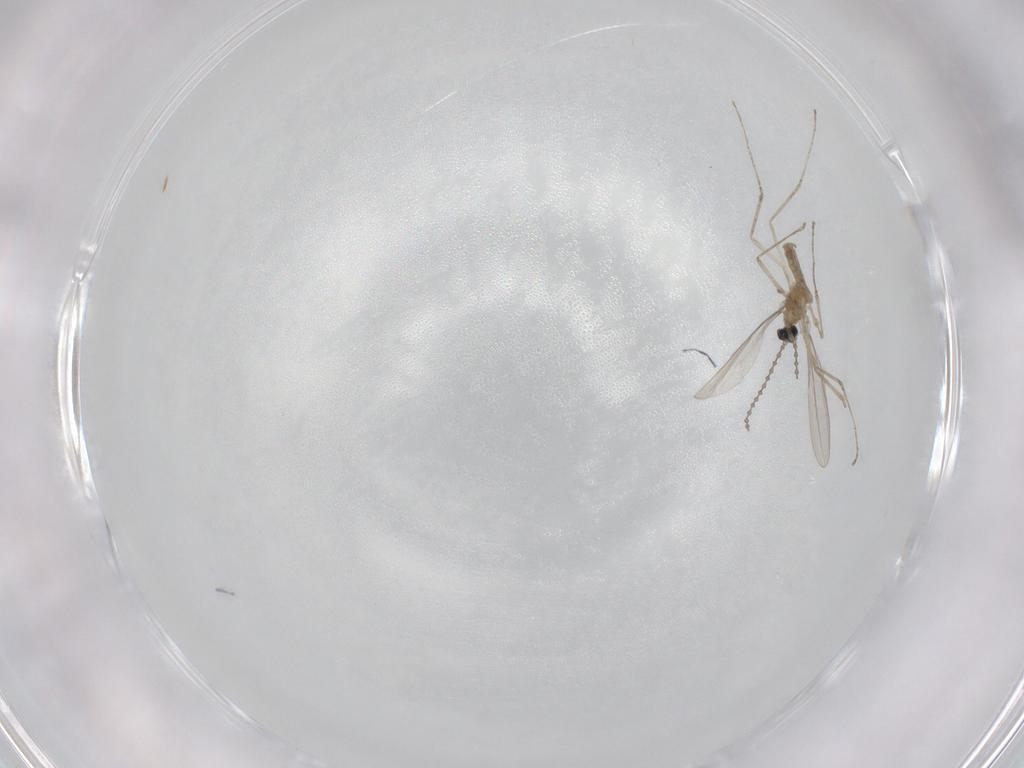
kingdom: Animalia
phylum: Arthropoda
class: Insecta
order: Diptera
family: Cecidomyiidae
